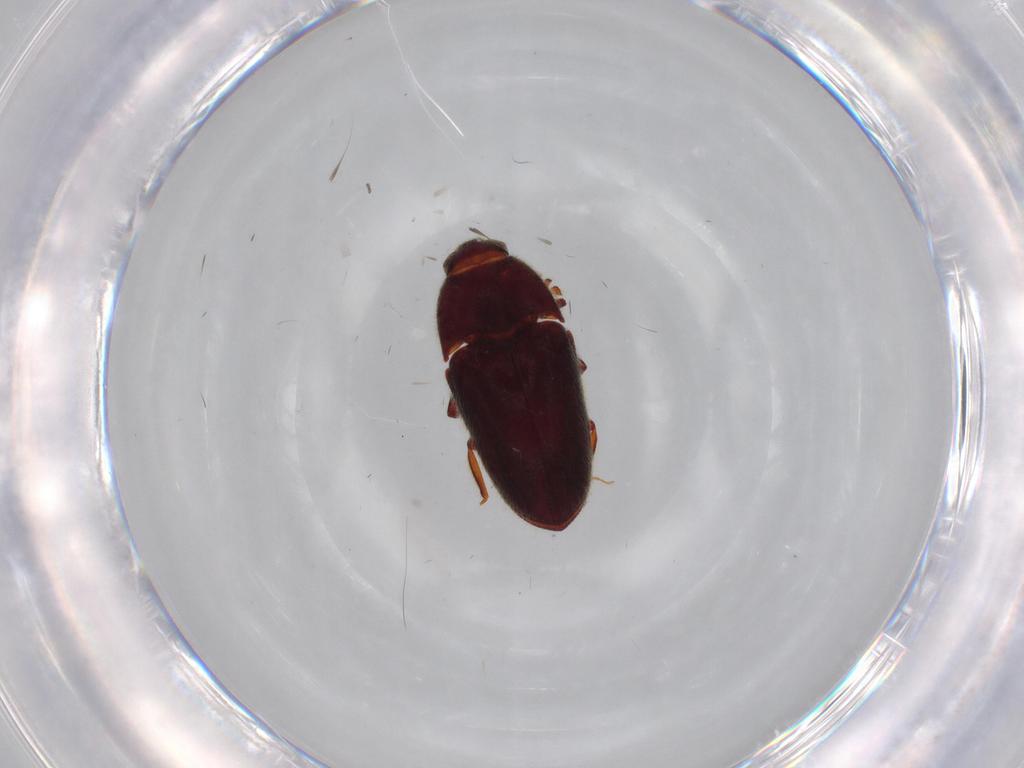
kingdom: Animalia
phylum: Arthropoda
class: Insecta
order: Coleoptera
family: Throscidae
